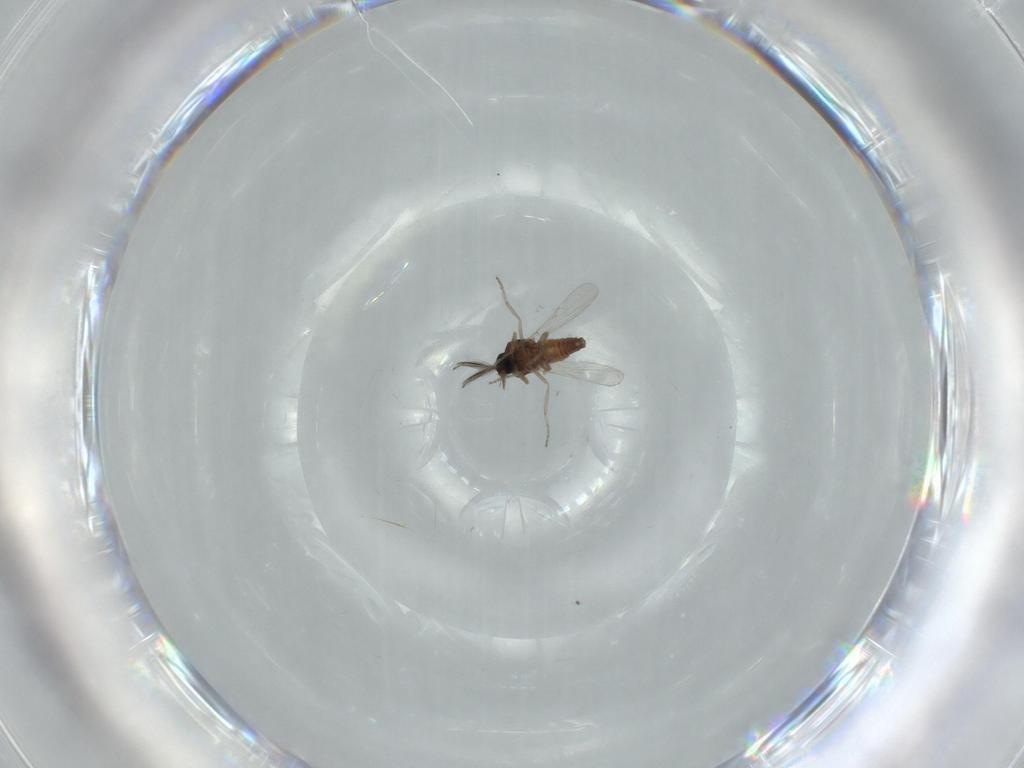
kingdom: Animalia
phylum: Arthropoda
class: Insecta
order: Diptera
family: Ceratopogonidae
